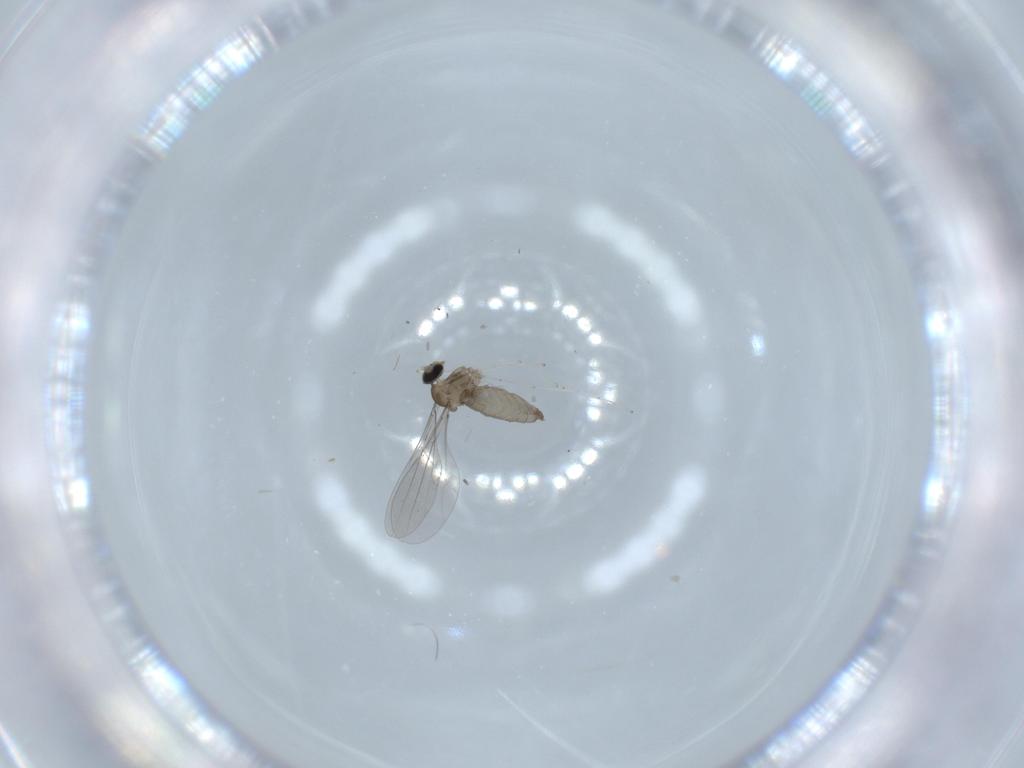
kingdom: Animalia
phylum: Arthropoda
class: Insecta
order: Diptera
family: Cecidomyiidae
